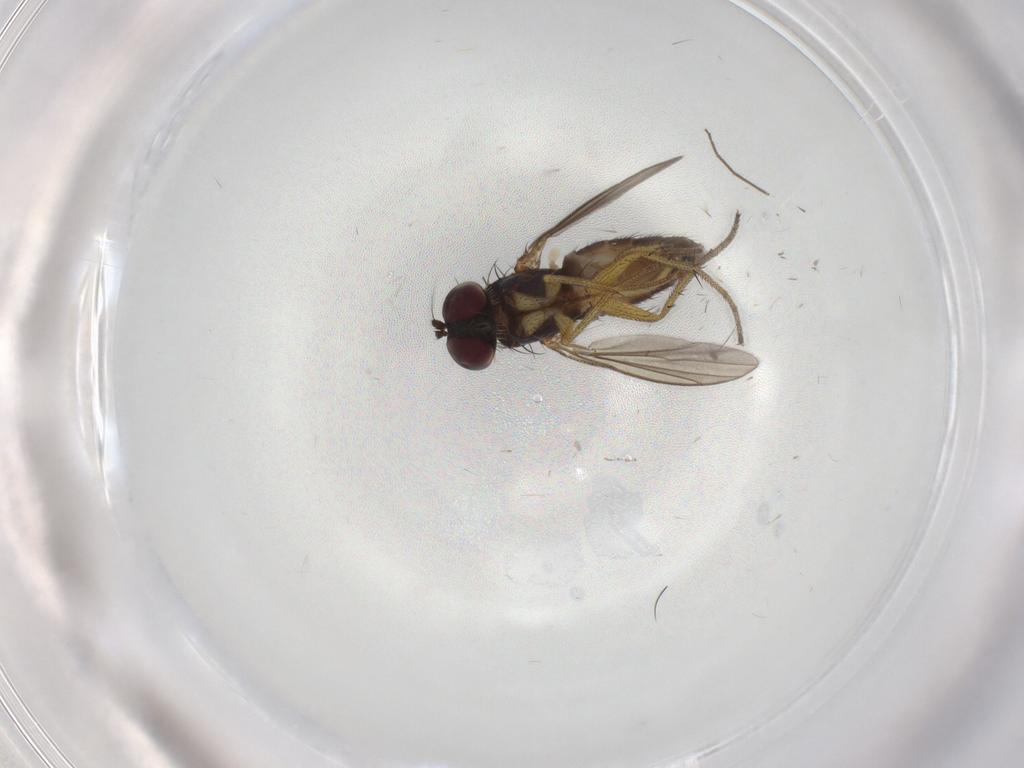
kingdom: Animalia
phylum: Arthropoda
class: Insecta
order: Diptera
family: Dolichopodidae
